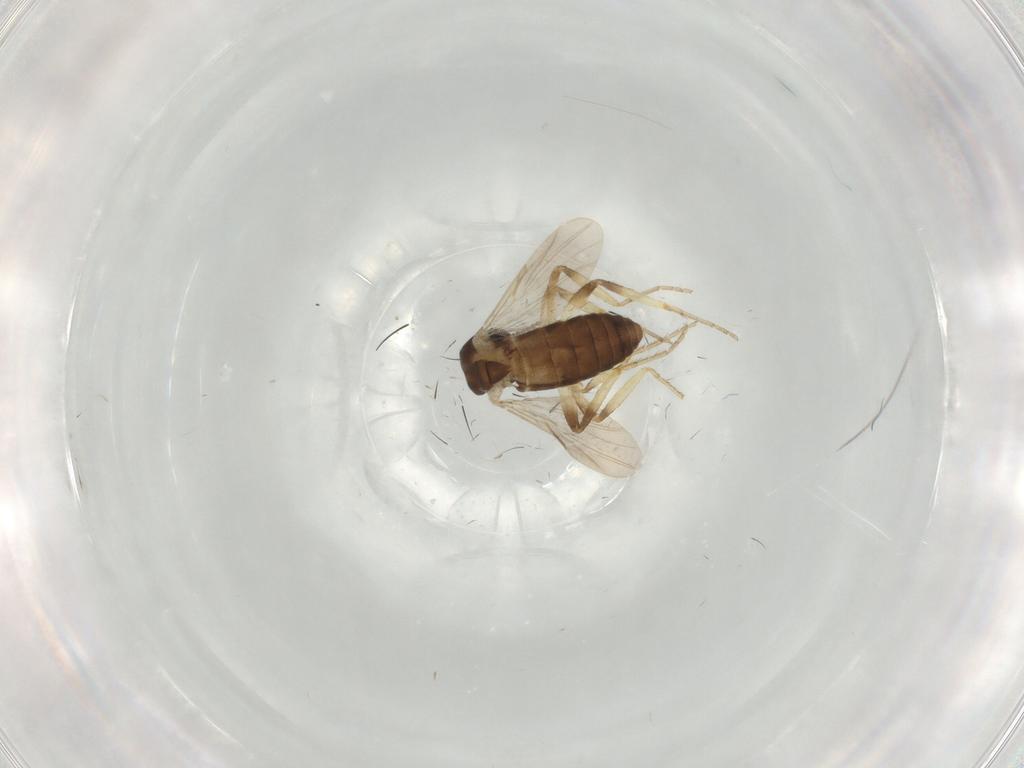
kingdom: Animalia
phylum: Arthropoda
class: Insecta
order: Diptera
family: Ceratopogonidae
